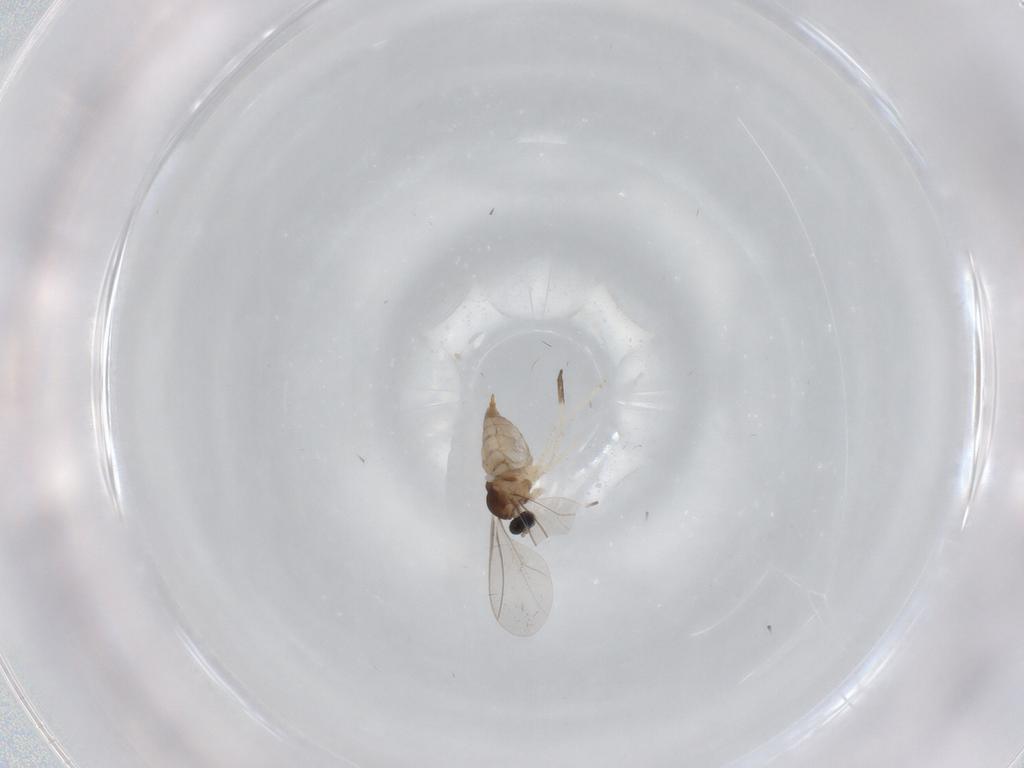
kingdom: Animalia
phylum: Arthropoda
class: Insecta
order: Diptera
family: Cecidomyiidae
